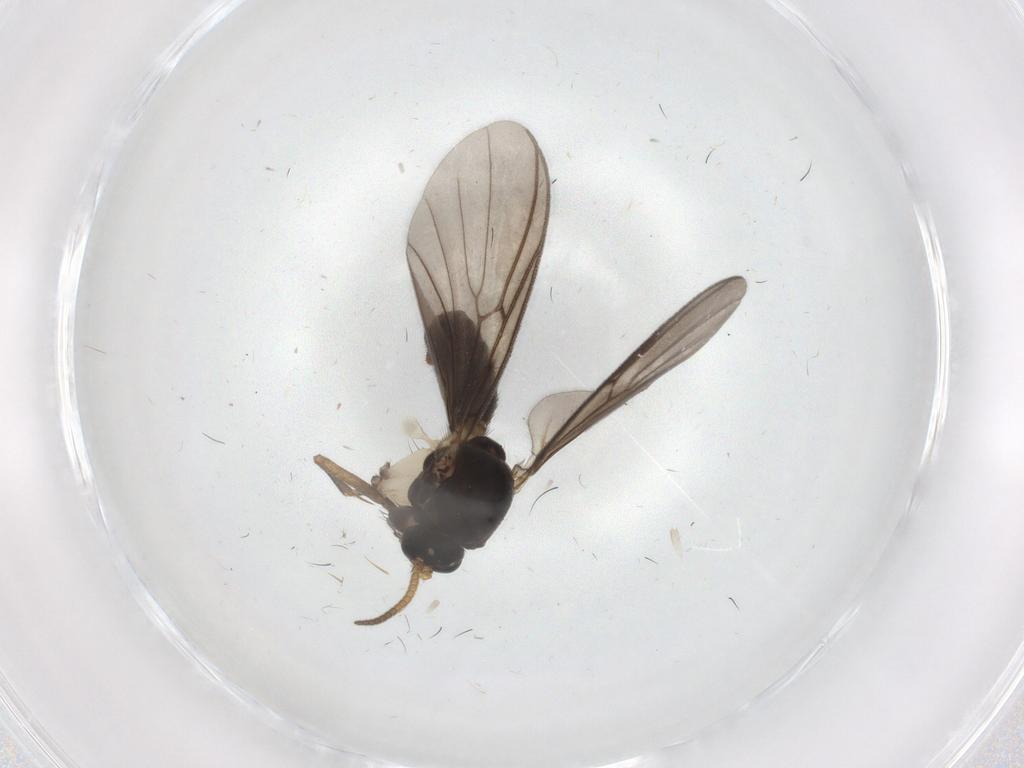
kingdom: Animalia
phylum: Arthropoda
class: Insecta
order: Diptera
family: Mycetophilidae
